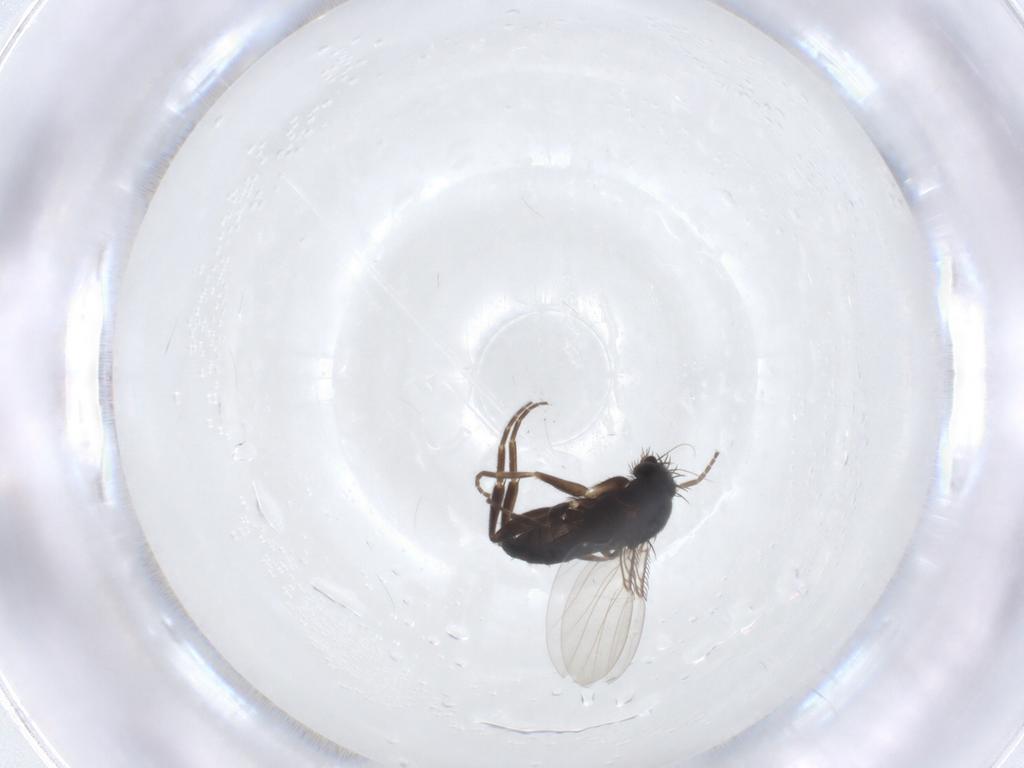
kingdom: Animalia
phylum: Arthropoda
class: Insecta
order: Diptera
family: Phoridae
